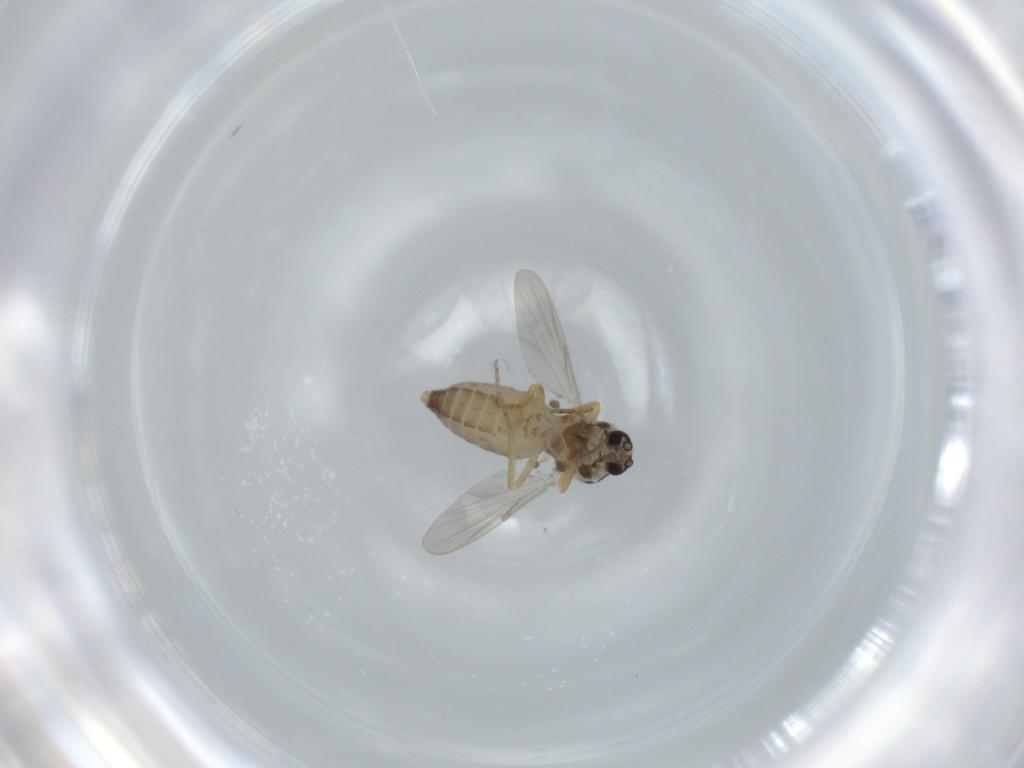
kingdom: Animalia
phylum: Arthropoda
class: Insecta
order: Diptera
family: Ceratopogonidae
